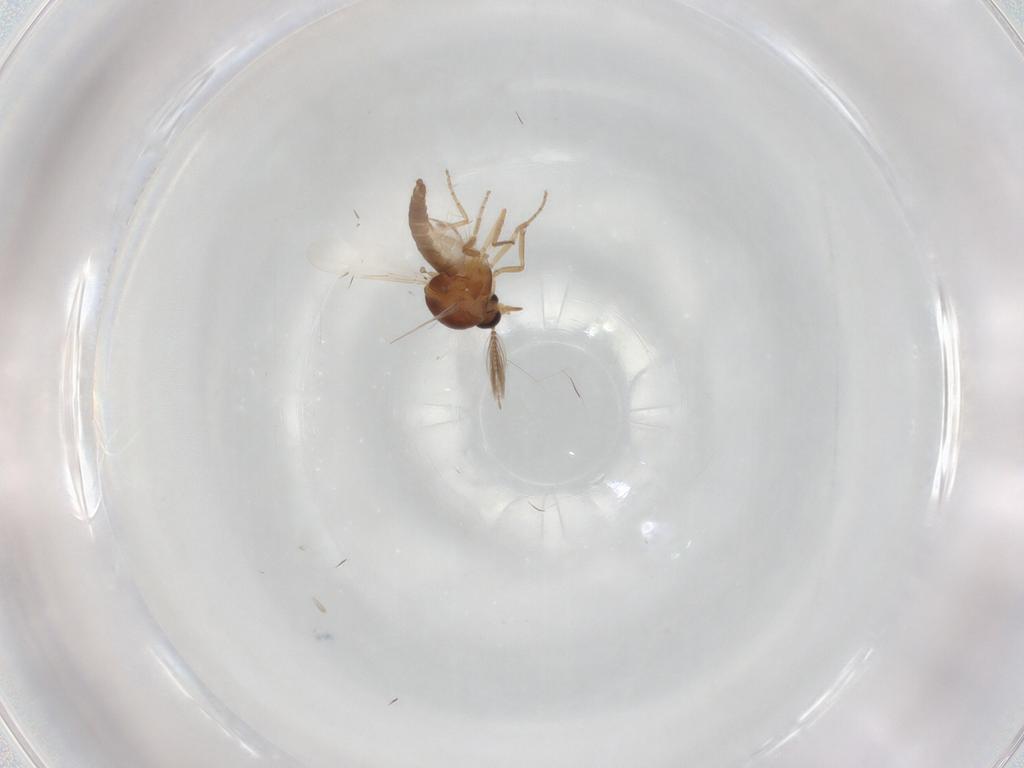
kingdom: Animalia
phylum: Arthropoda
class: Insecta
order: Diptera
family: Ceratopogonidae
